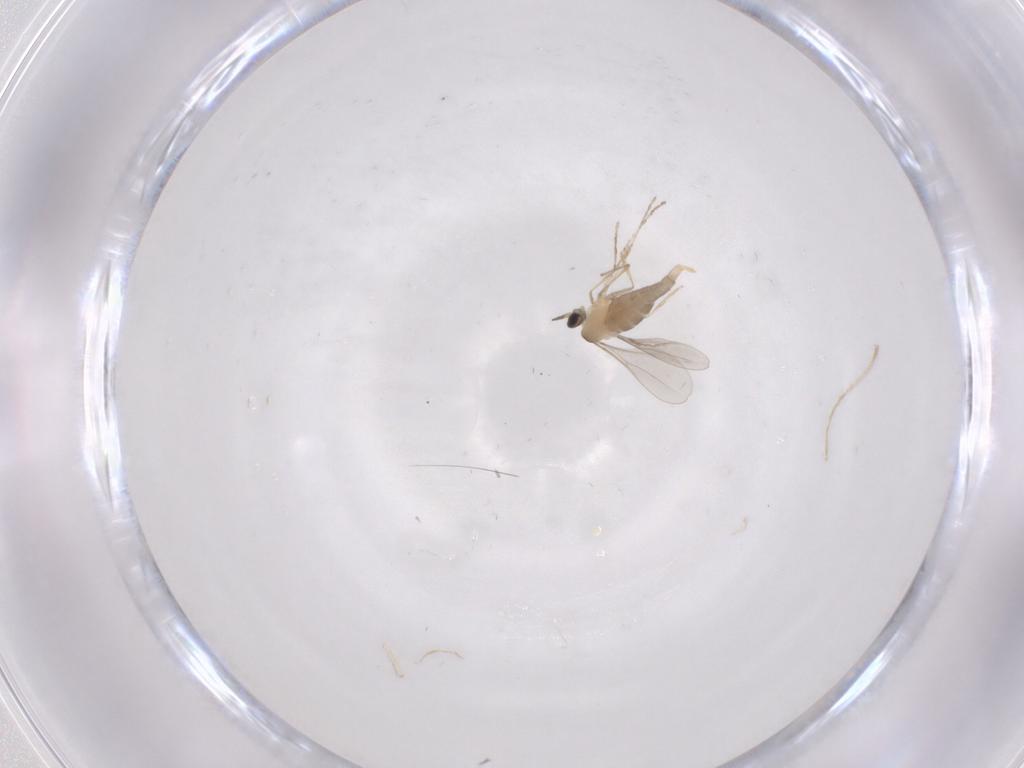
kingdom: Animalia
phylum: Arthropoda
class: Insecta
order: Diptera
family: Cecidomyiidae
